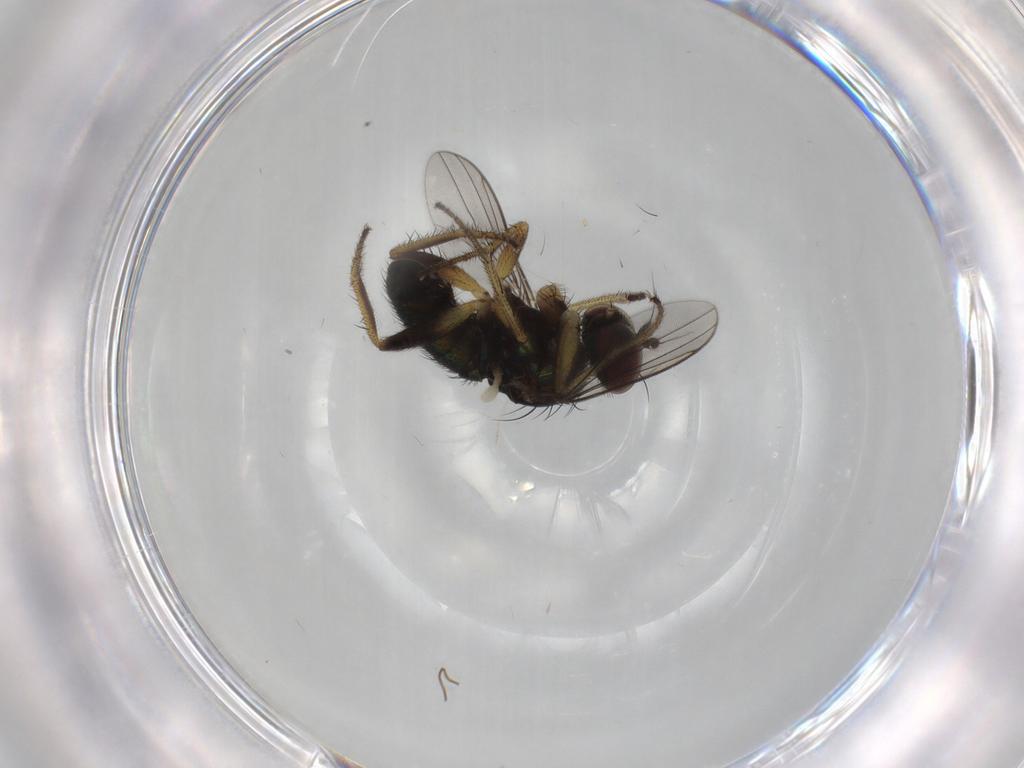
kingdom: Animalia
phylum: Arthropoda
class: Insecta
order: Diptera
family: Dolichopodidae
